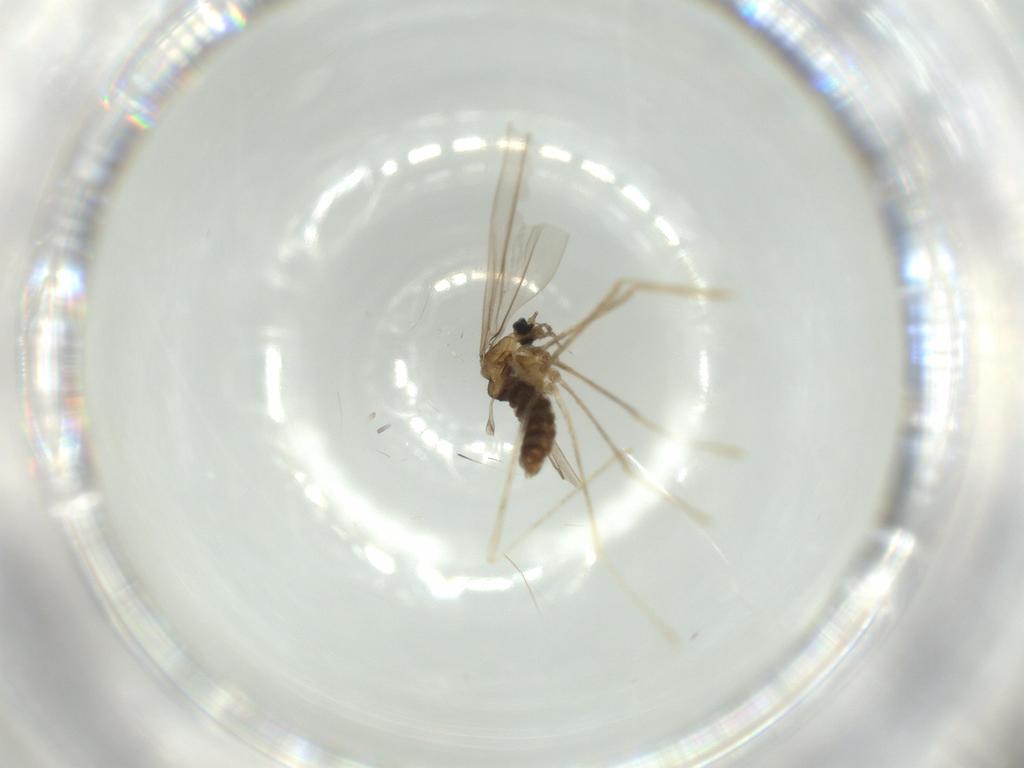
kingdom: Animalia
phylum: Arthropoda
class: Insecta
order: Diptera
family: Cecidomyiidae
